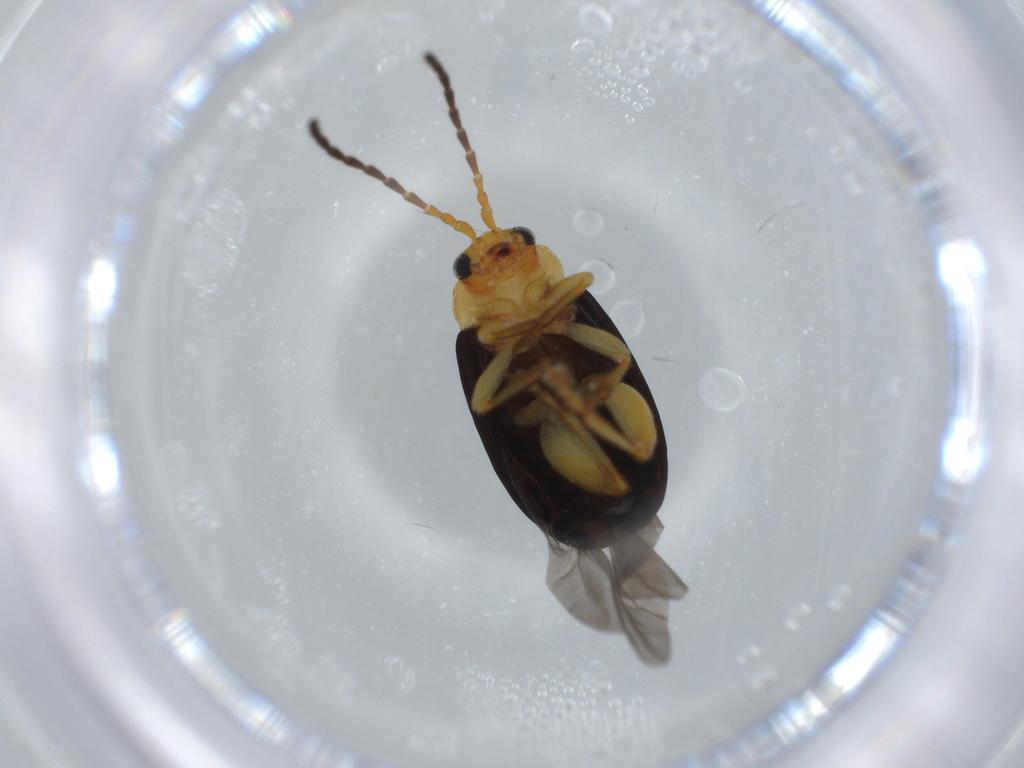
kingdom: Animalia
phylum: Arthropoda
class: Insecta
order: Coleoptera
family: Chrysomelidae
